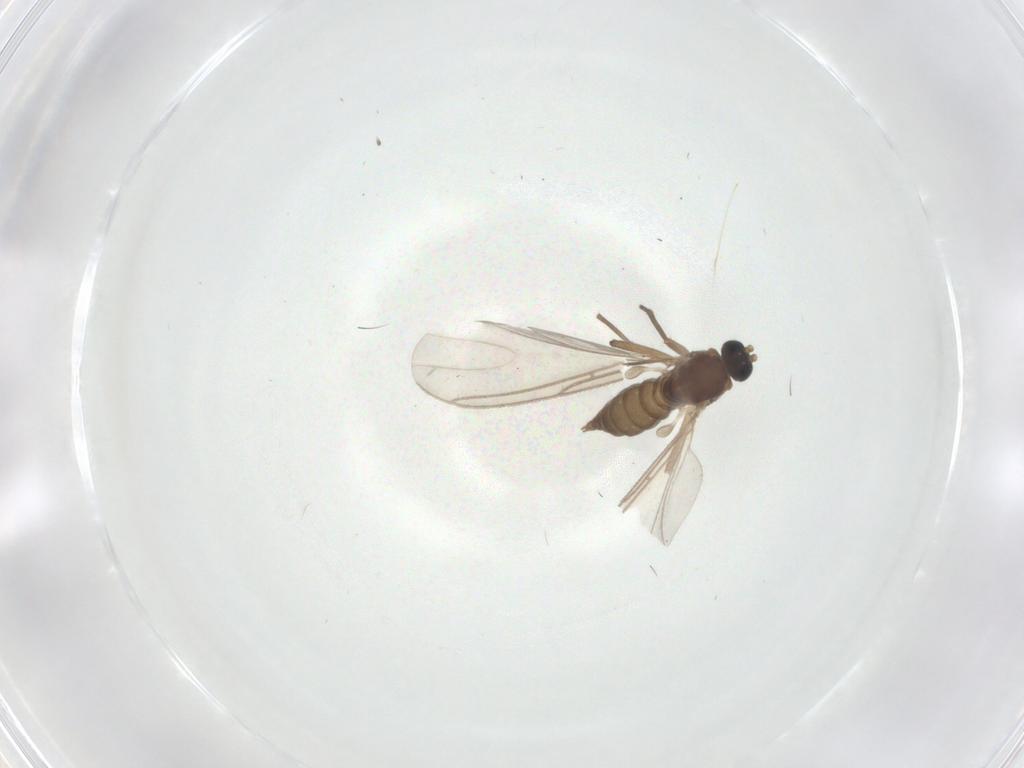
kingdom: Animalia
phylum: Arthropoda
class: Insecta
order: Diptera
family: Sciaridae
